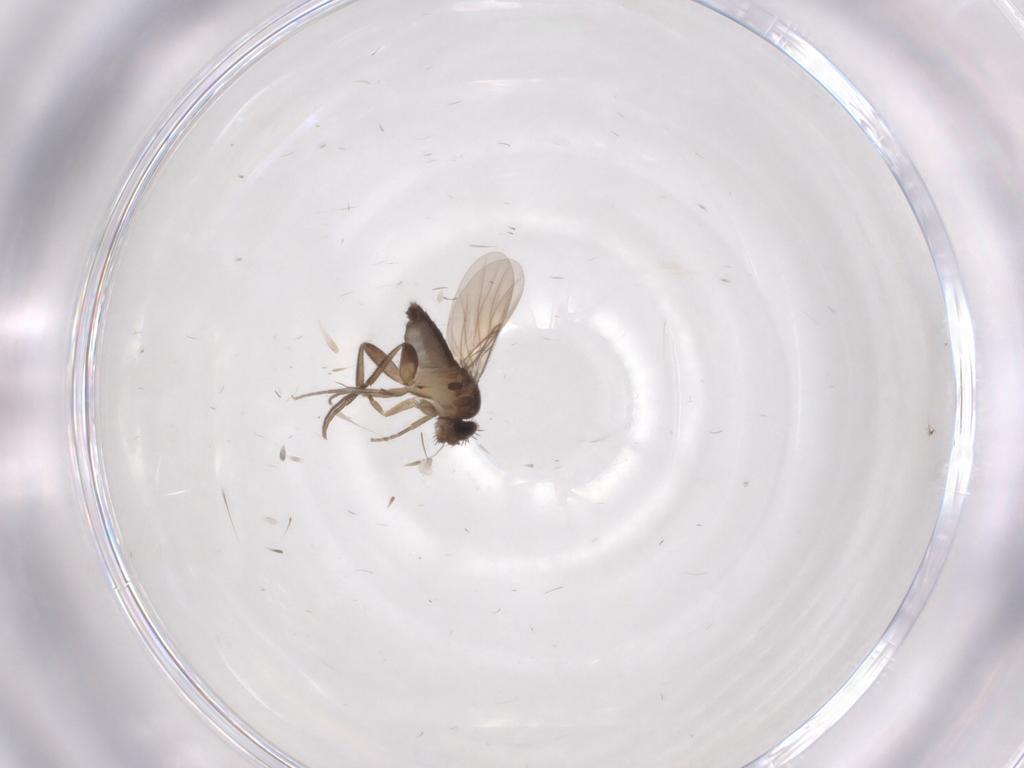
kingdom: Animalia
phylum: Arthropoda
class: Insecta
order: Diptera
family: Phoridae
